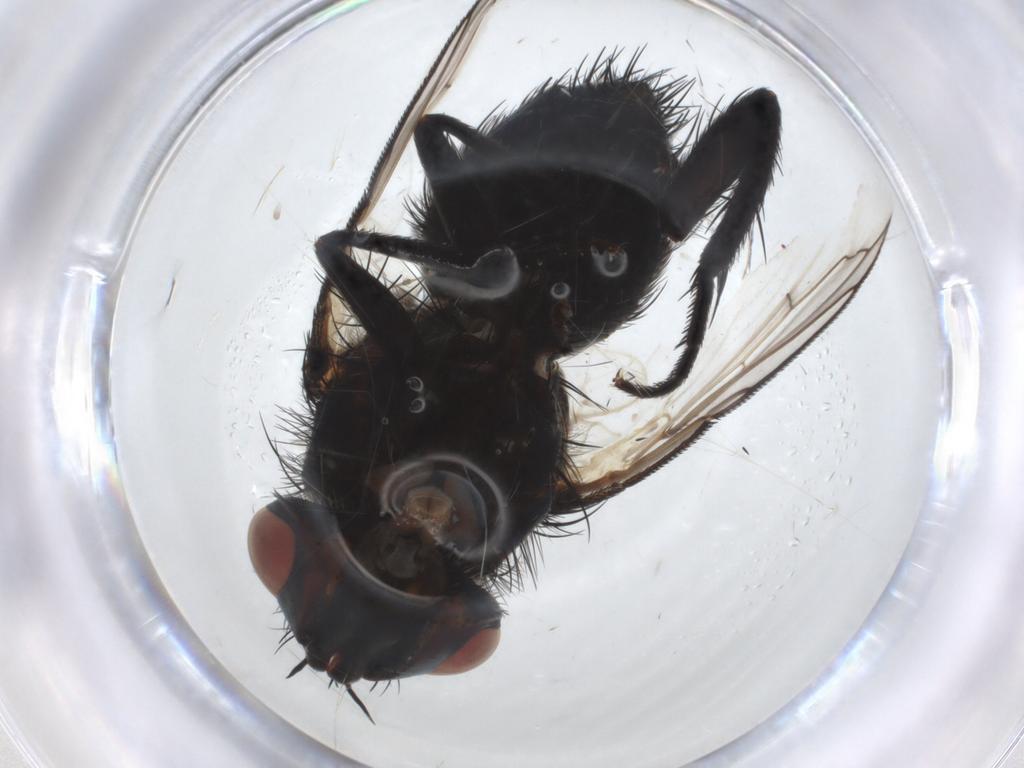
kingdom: Animalia
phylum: Arthropoda
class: Insecta
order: Diptera
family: Tachinidae
